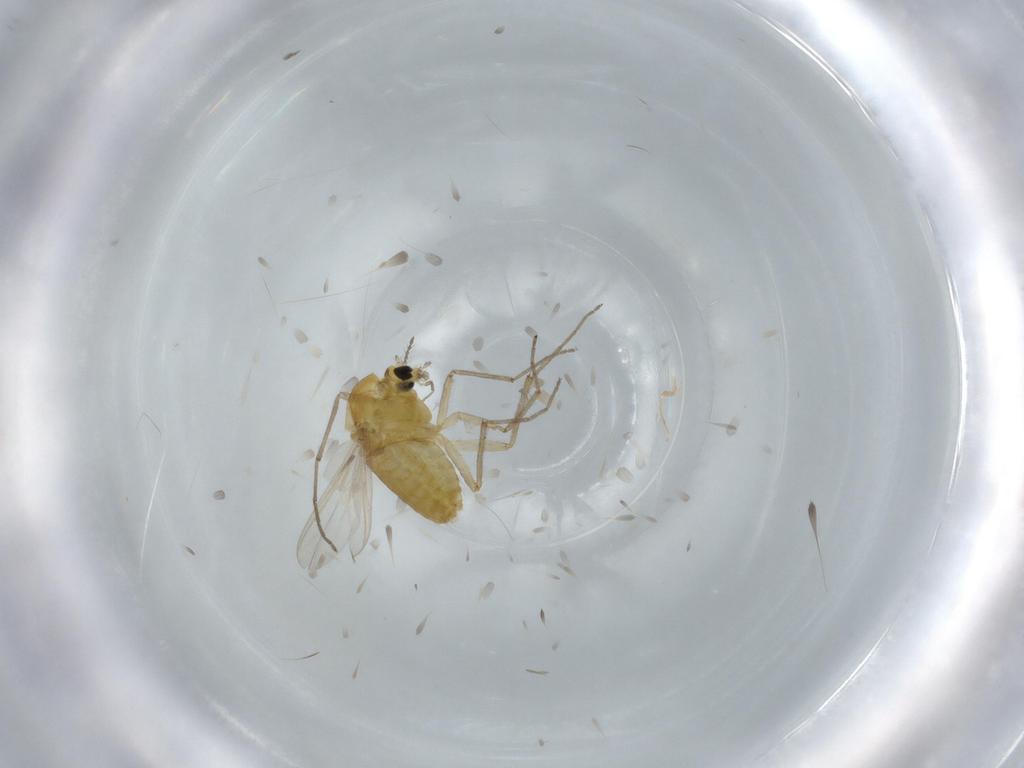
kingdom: Animalia
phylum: Arthropoda
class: Insecta
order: Diptera
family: Chironomidae
